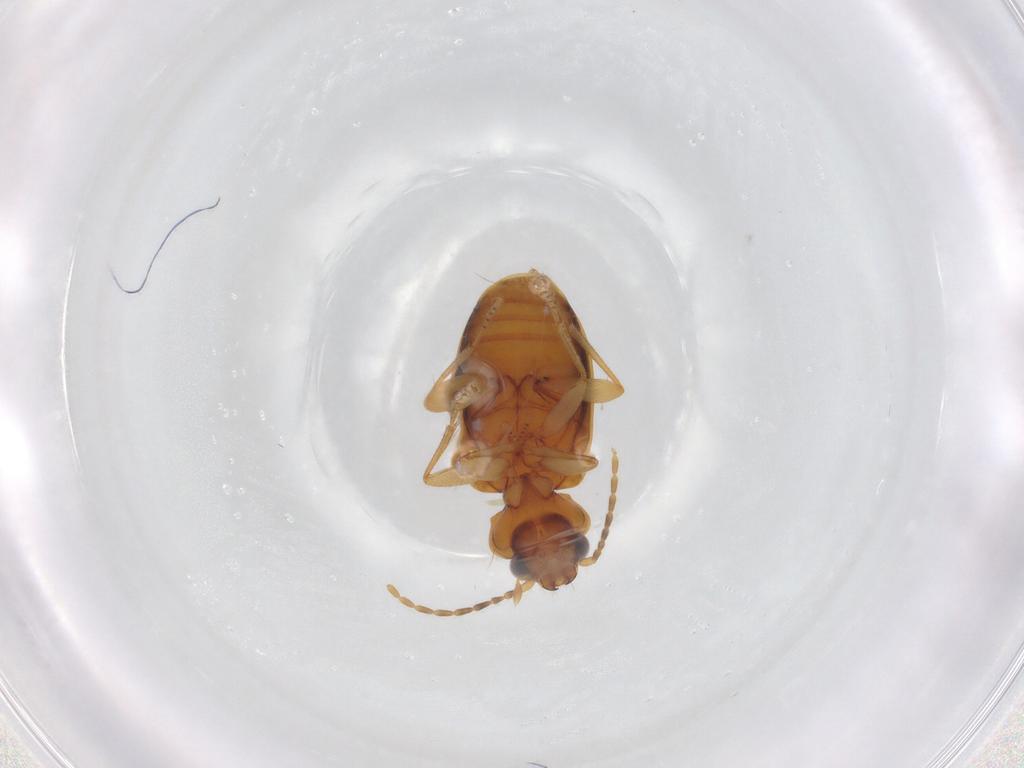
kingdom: Animalia
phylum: Arthropoda
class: Insecta
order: Coleoptera
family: Carabidae
